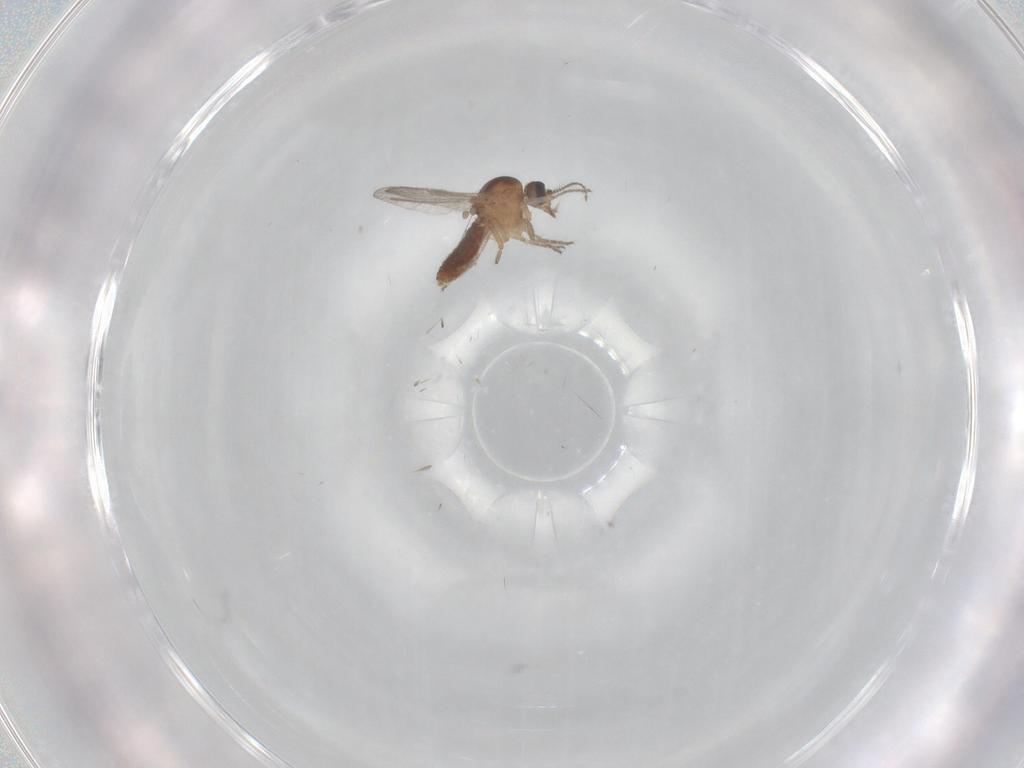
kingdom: Animalia
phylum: Arthropoda
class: Insecta
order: Diptera
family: Ceratopogonidae
